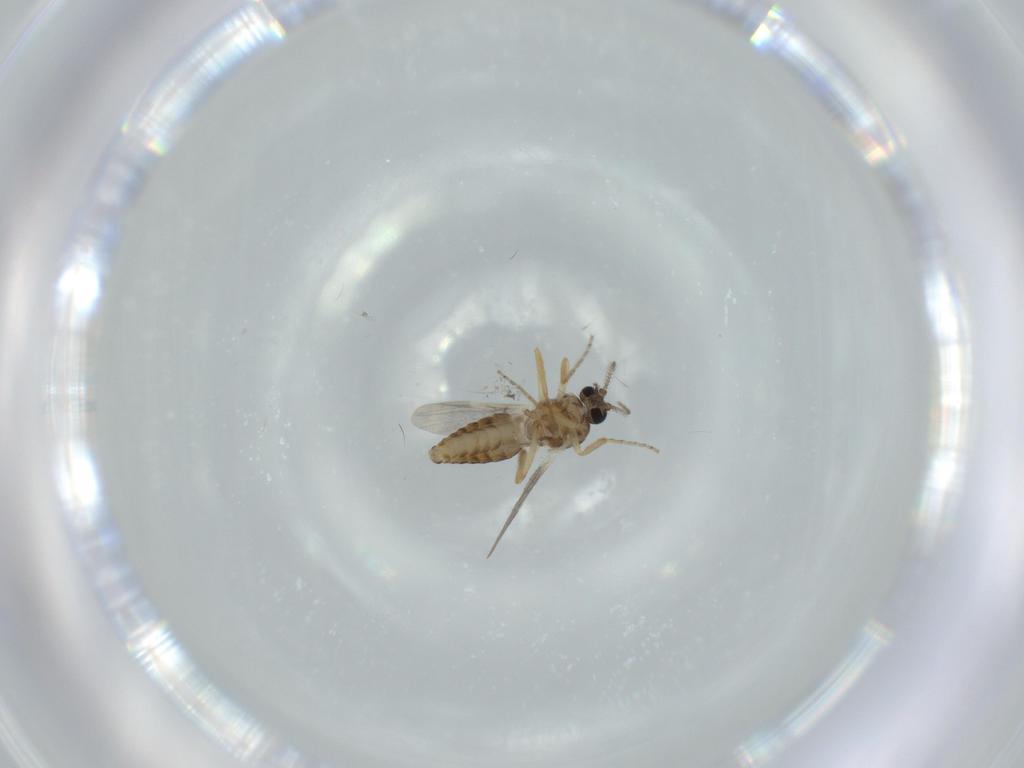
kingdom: Animalia
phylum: Arthropoda
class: Insecta
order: Diptera
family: Ceratopogonidae
